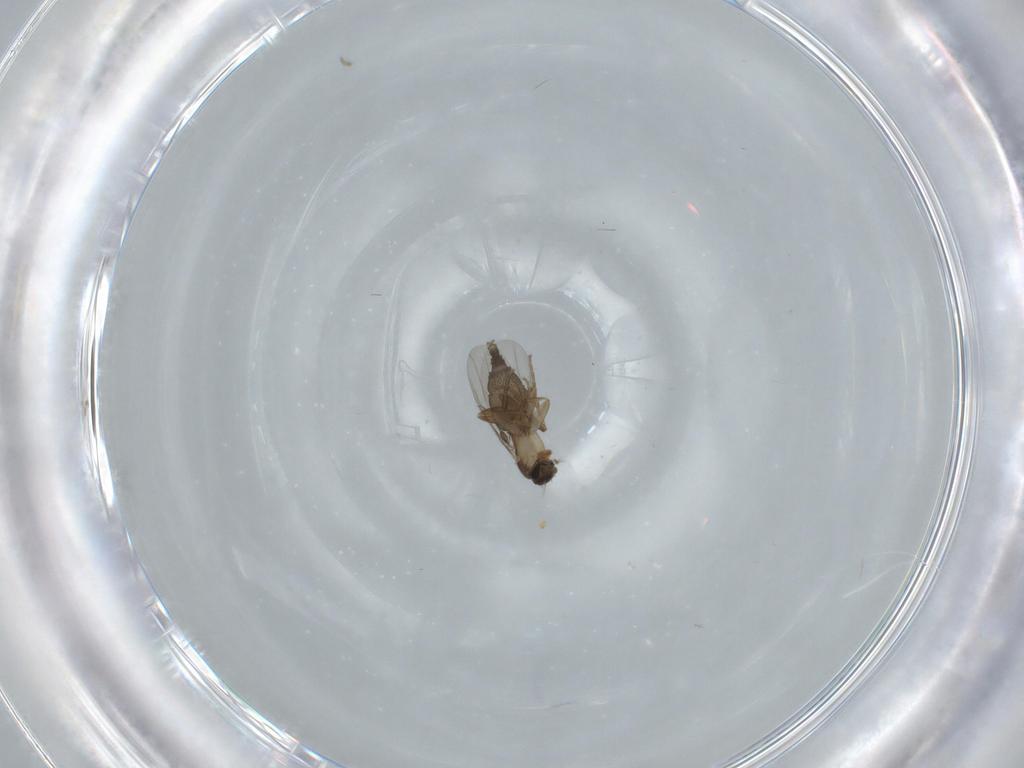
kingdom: Animalia
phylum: Arthropoda
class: Insecta
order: Diptera
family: Phoridae
